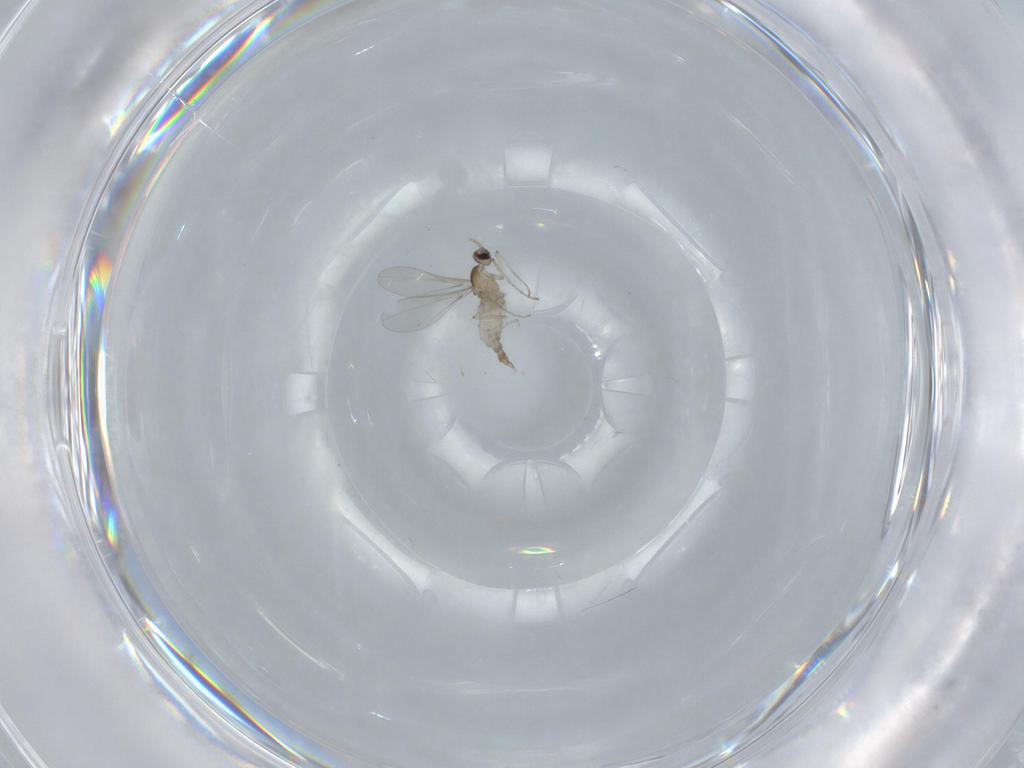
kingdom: Animalia
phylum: Arthropoda
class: Insecta
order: Diptera
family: Cecidomyiidae
